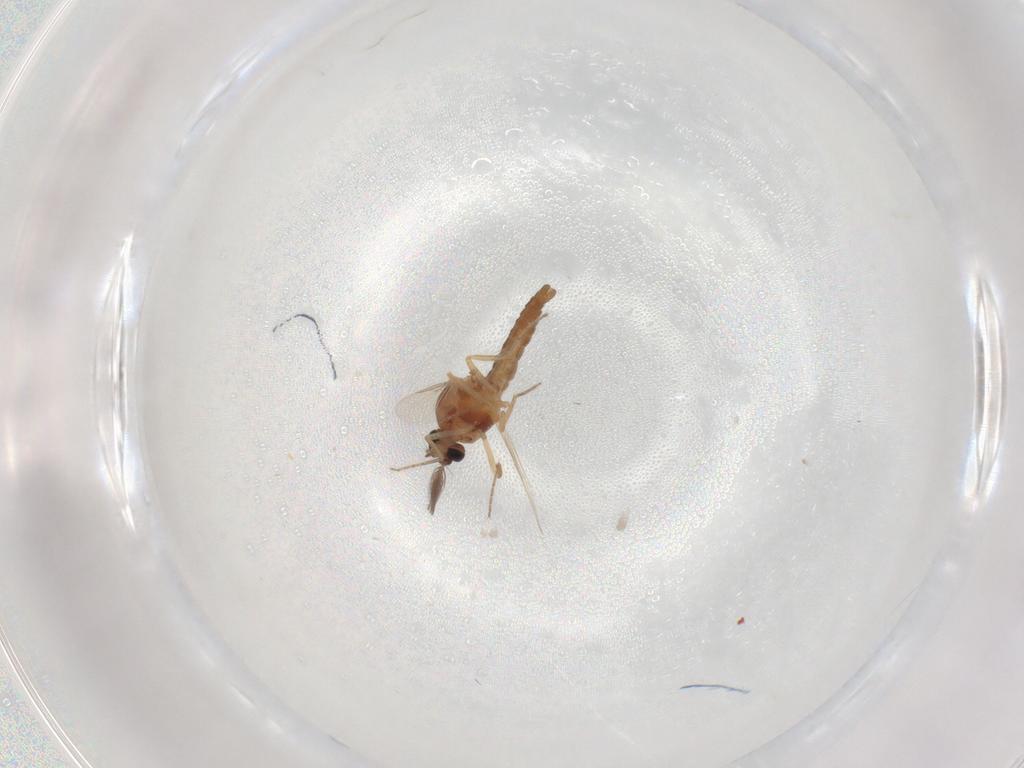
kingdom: Animalia
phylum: Arthropoda
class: Insecta
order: Diptera
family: Ceratopogonidae
